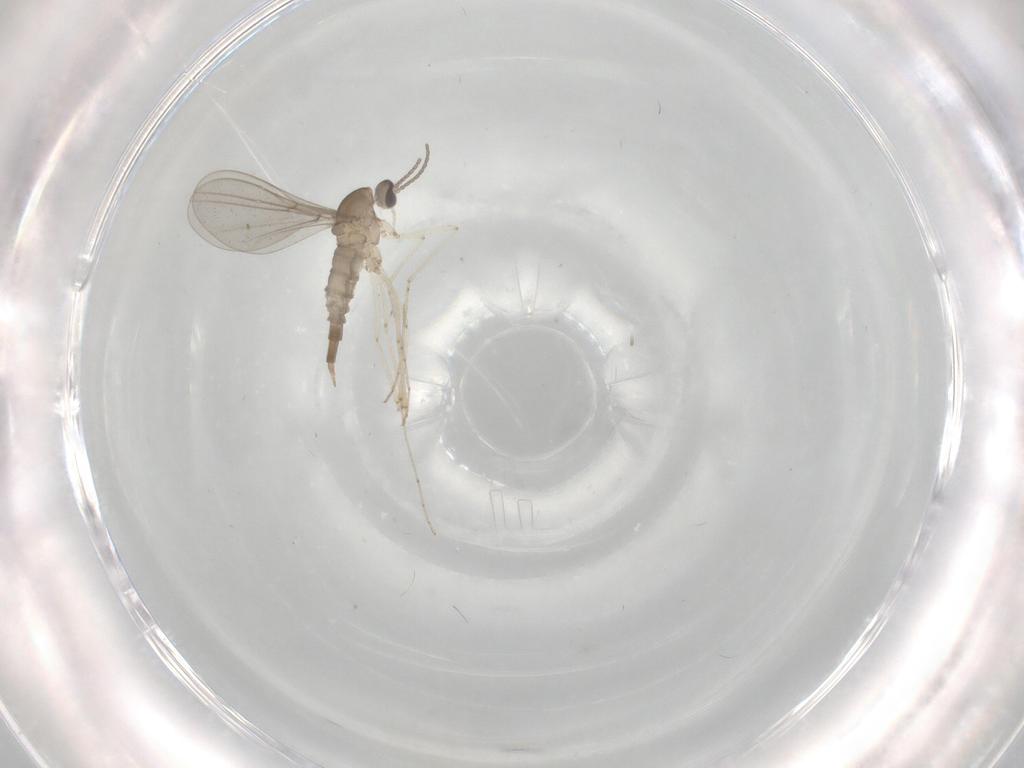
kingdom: Animalia
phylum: Arthropoda
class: Insecta
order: Diptera
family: Cecidomyiidae
